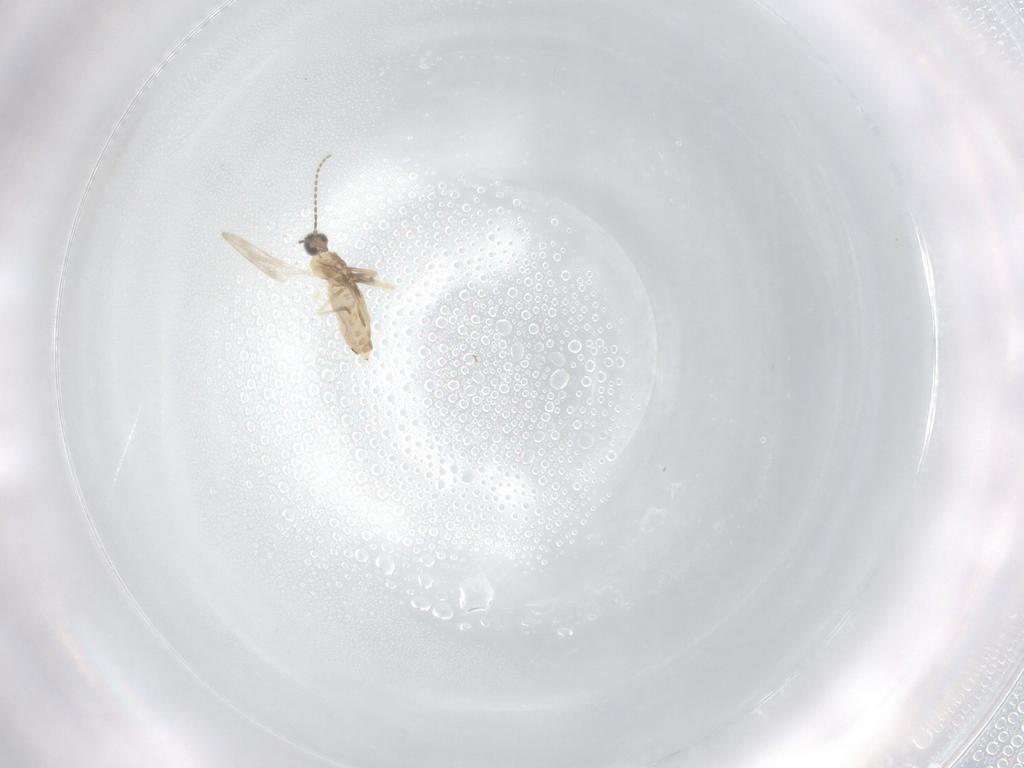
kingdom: Animalia
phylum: Arthropoda
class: Insecta
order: Diptera
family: Cecidomyiidae
